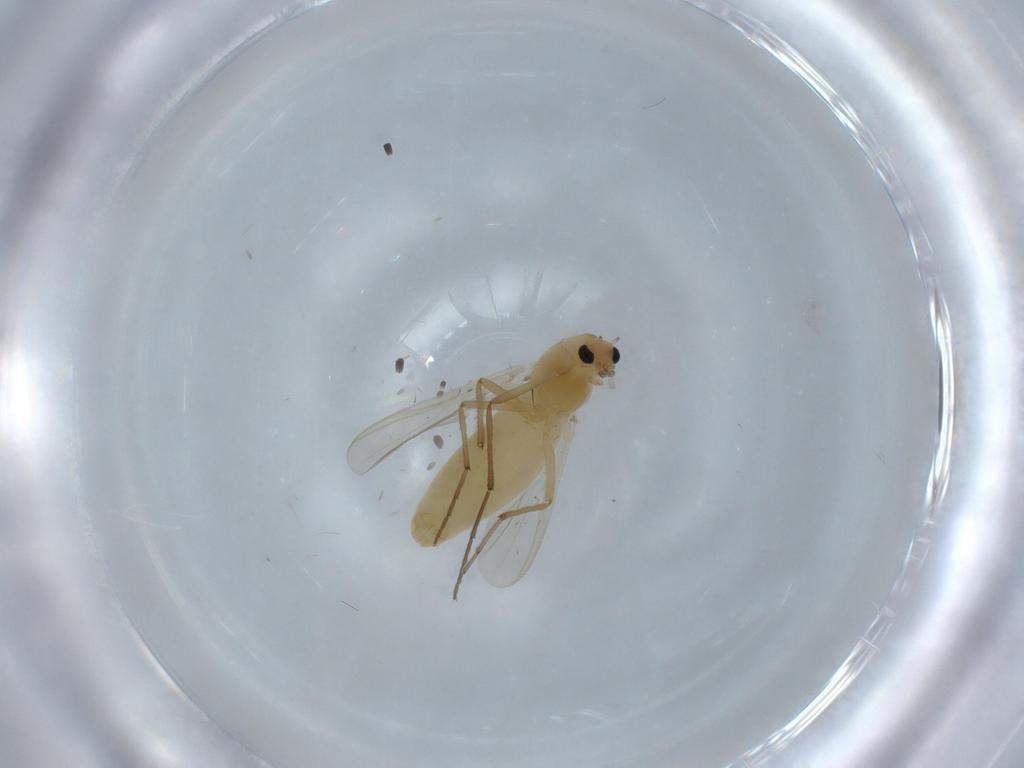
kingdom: Animalia
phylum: Arthropoda
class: Insecta
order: Diptera
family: Chironomidae
